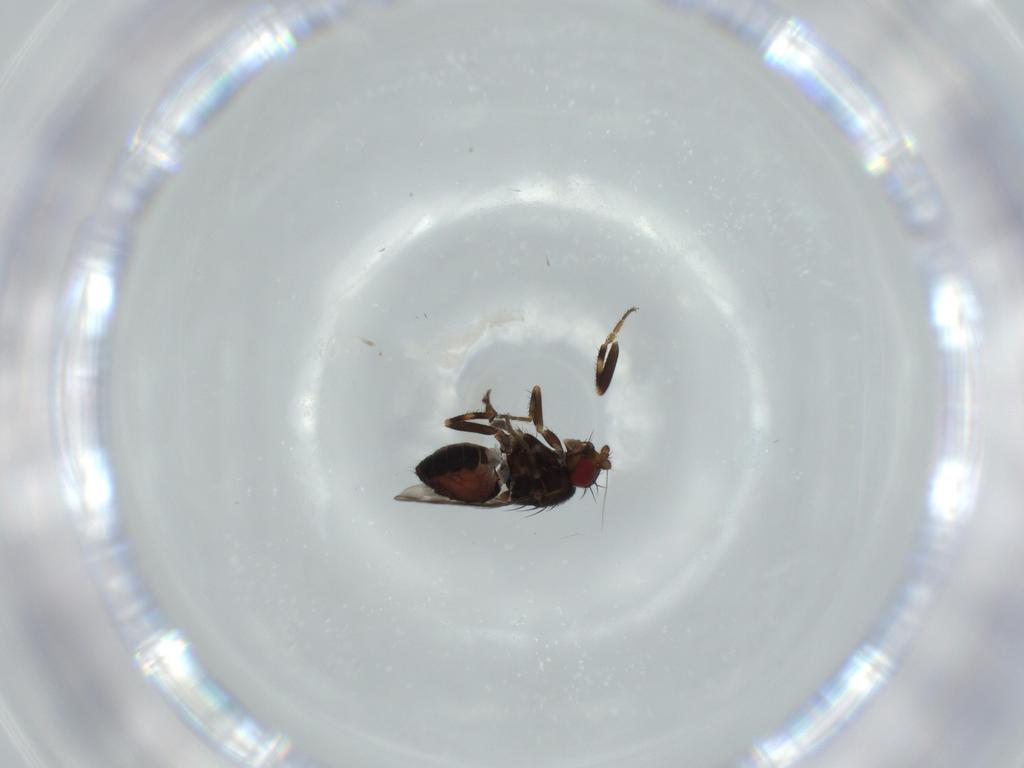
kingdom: Animalia
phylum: Arthropoda
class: Insecta
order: Diptera
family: Sphaeroceridae
